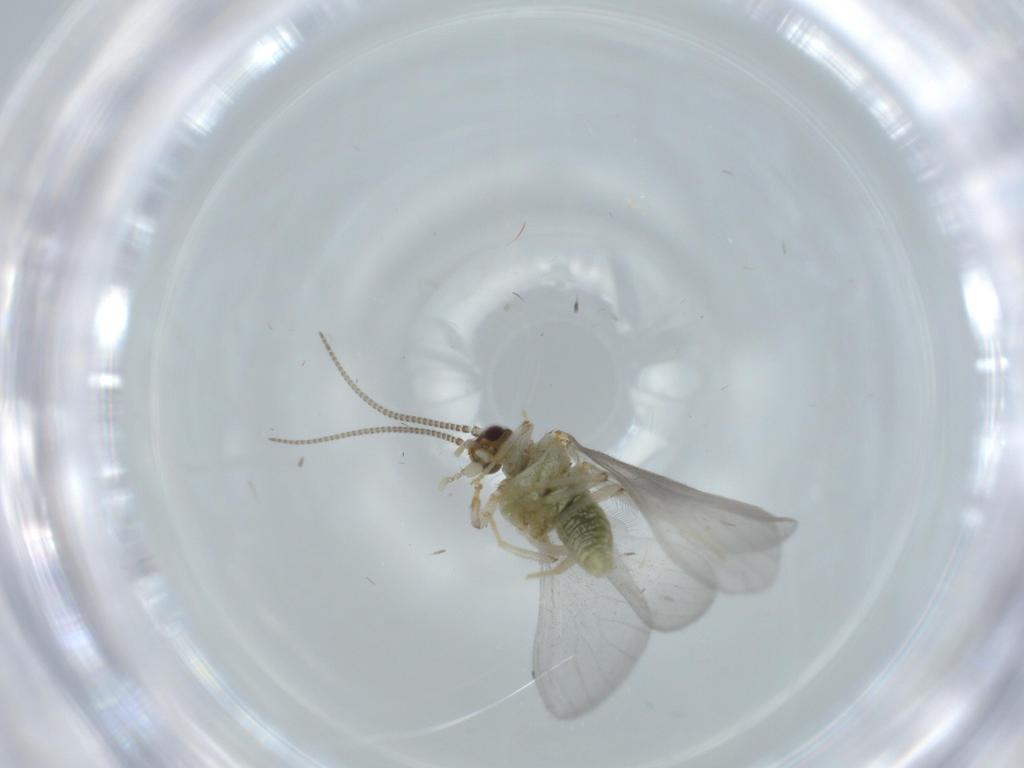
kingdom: Animalia
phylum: Arthropoda
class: Insecta
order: Neuroptera
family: Coniopterygidae
